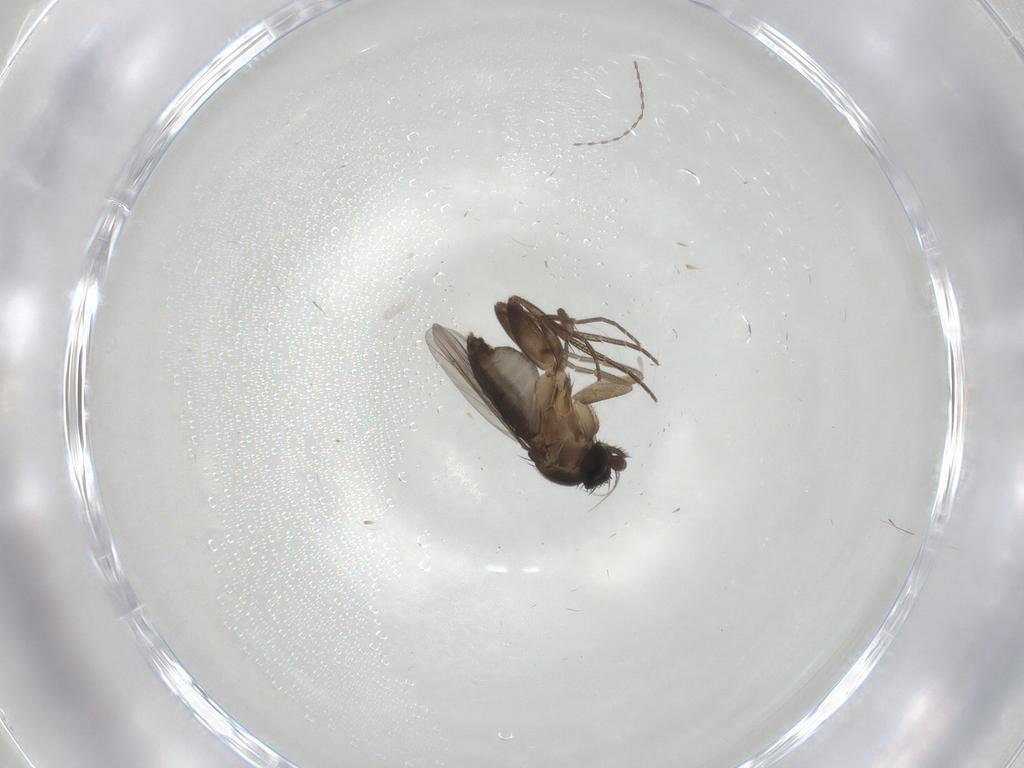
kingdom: Animalia
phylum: Arthropoda
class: Insecta
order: Diptera
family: Phoridae
